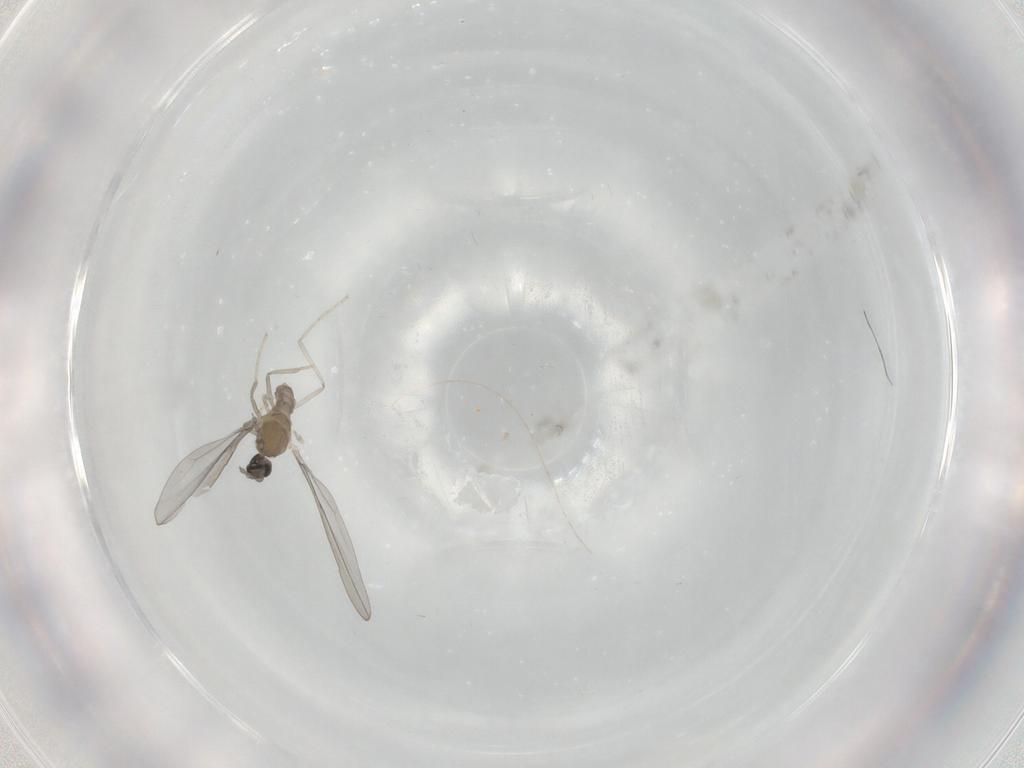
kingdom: Animalia
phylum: Arthropoda
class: Insecta
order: Diptera
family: Cecidomyiidae
